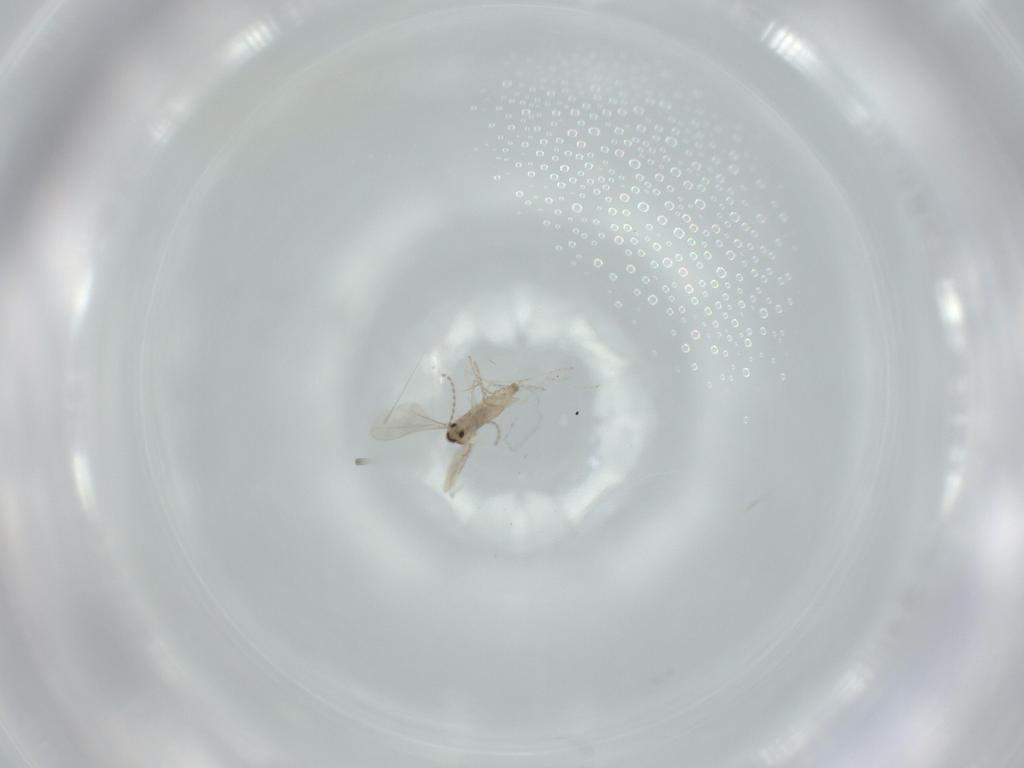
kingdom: Animalia
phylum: Arthropoda
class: Insecta
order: Diptera
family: Cecidomyiidae
